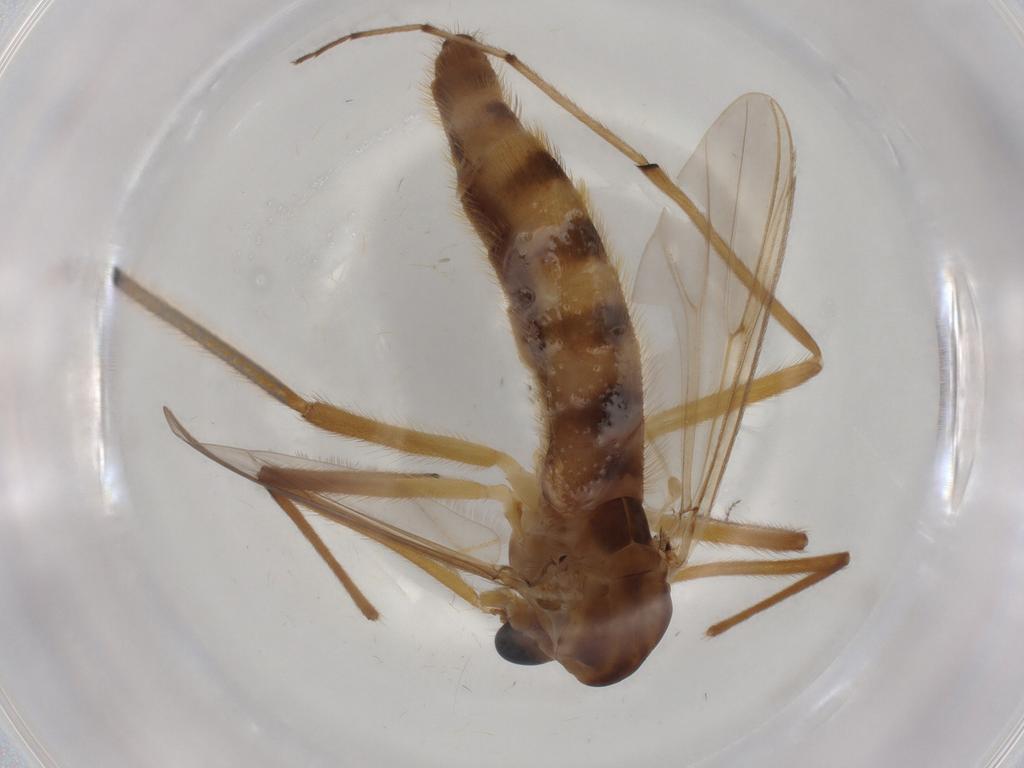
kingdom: Animalia
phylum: Arthropoda
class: Insecta
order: Diptera
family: Chironomidae
